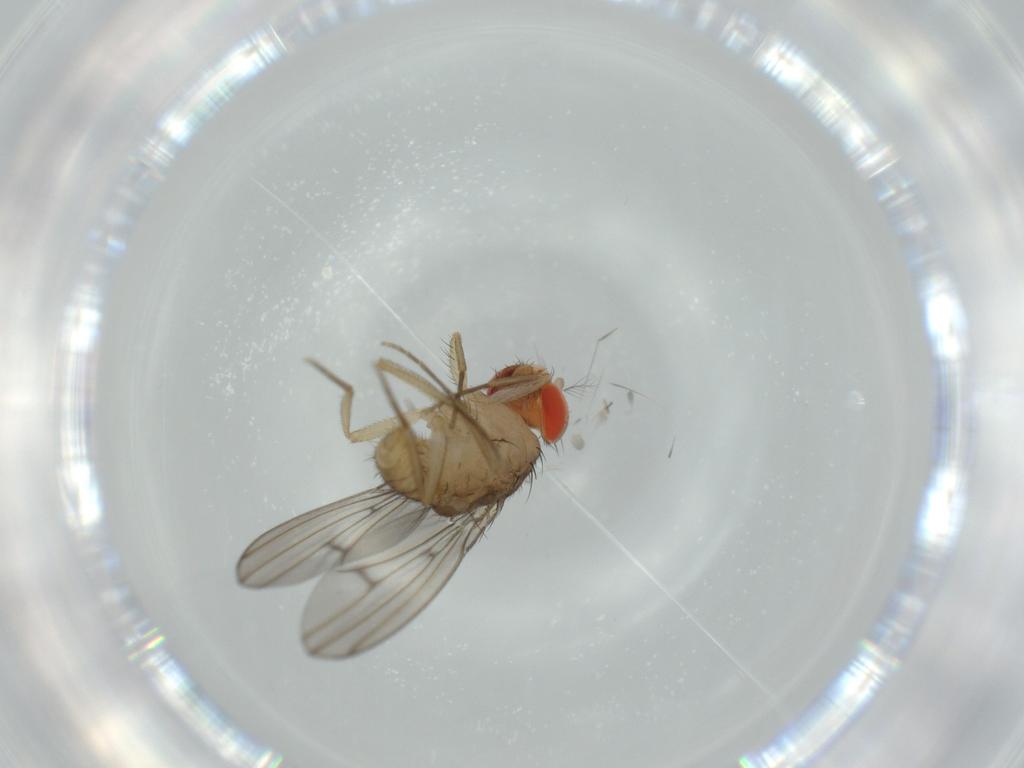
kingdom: Animalia
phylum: Arthropoda
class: Insecta
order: Diptera
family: Drosophilidae
